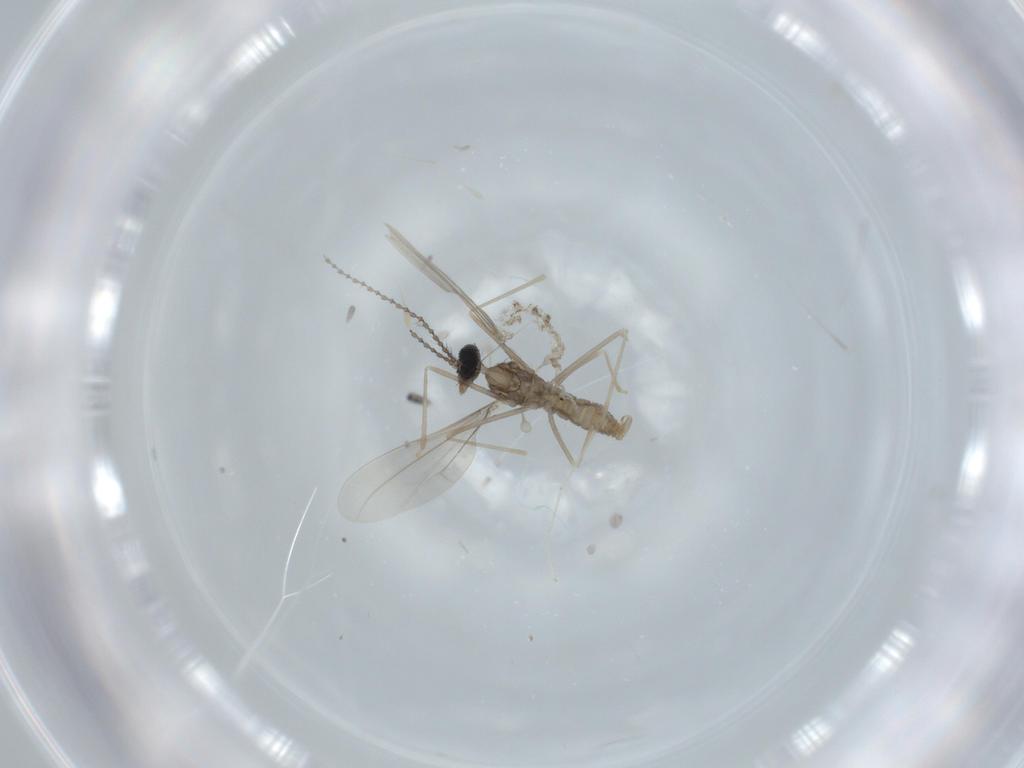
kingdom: Animalia
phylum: Arthropoda
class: Insecta
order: Diptera
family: Cecidomyiidae
